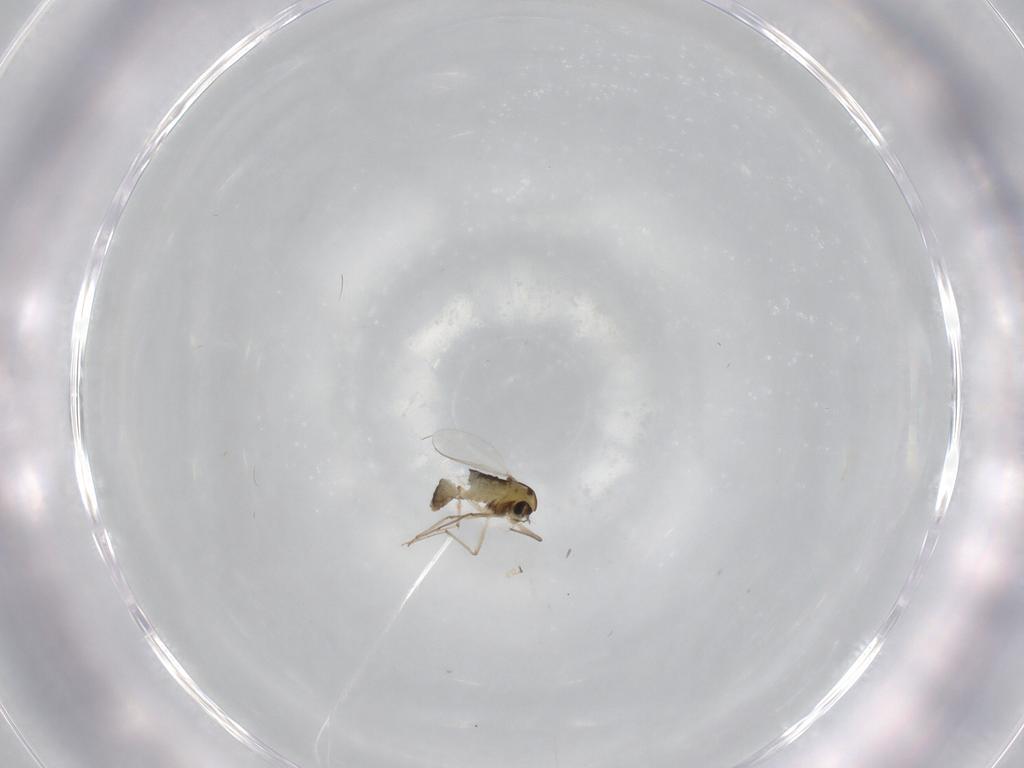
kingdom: Animalia
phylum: Arthropoda
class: Insecta
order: Diptera
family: Chironomidae
